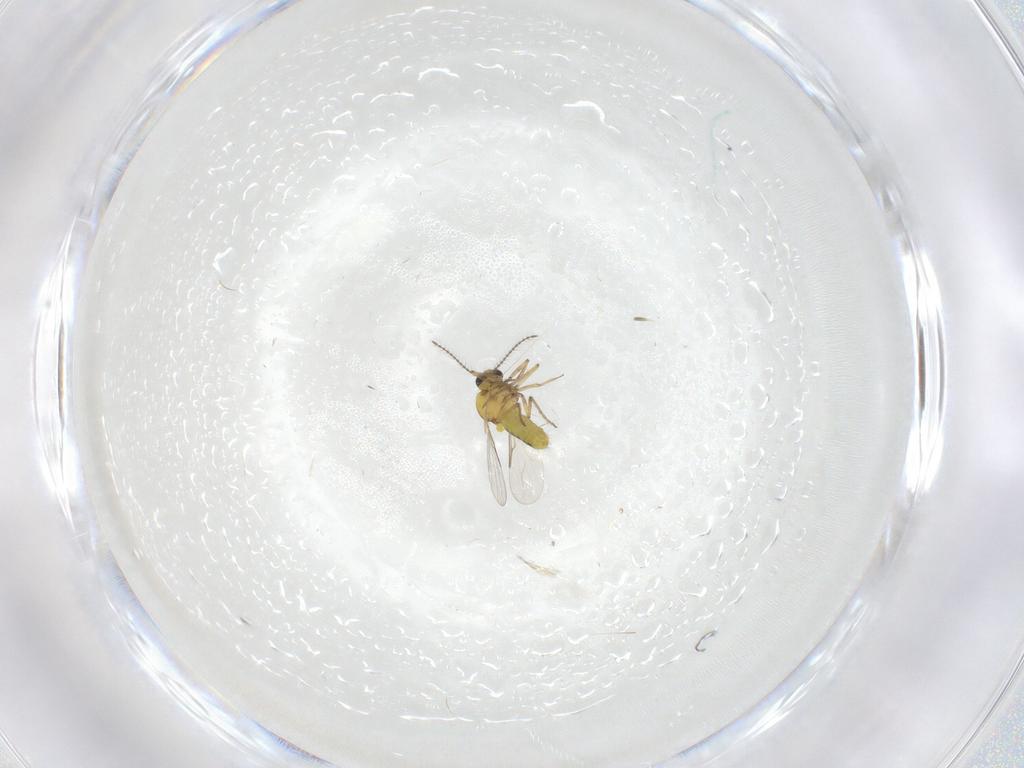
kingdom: Animalia
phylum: Arthropoda
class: Insecta
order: Diptera
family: Ceratopogonidae
